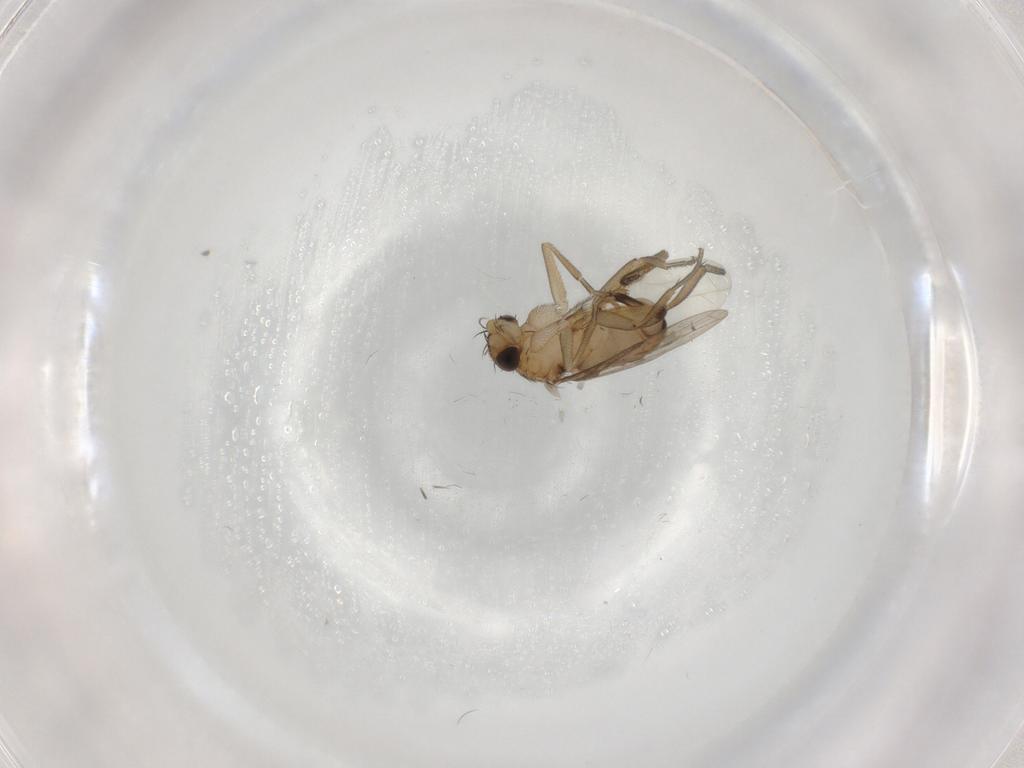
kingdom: Animalia
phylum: Arthropoda
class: Insecta
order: Diptera
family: Phoridae
